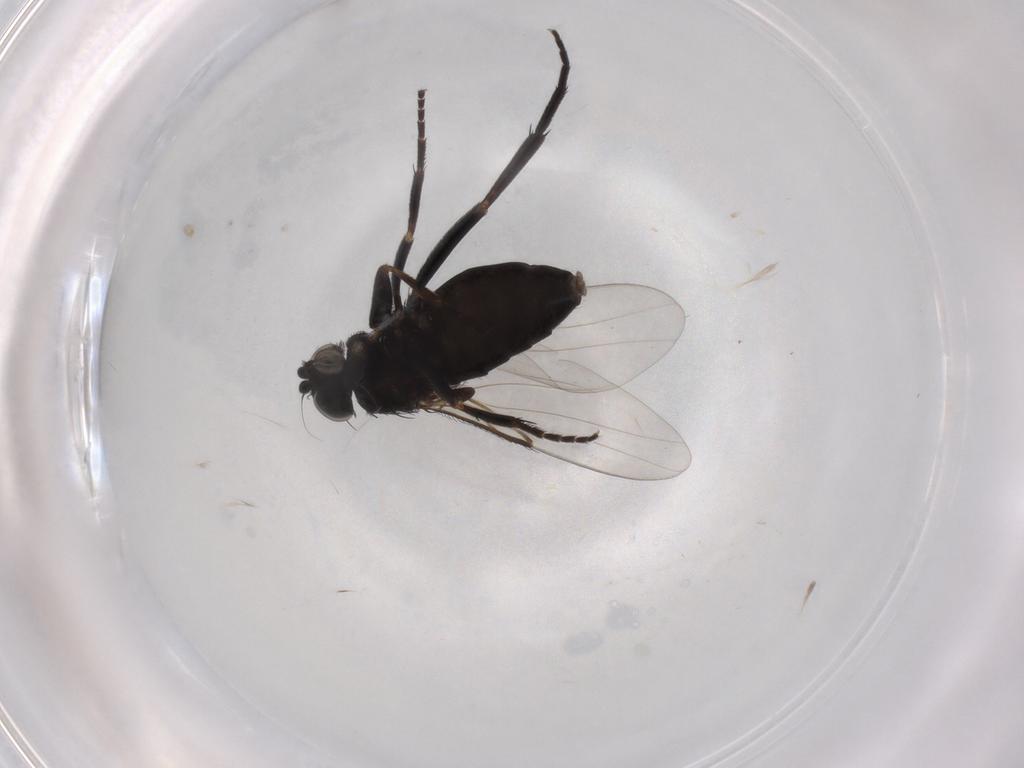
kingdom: Animalia
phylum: Arthropoda
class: Insecta
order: Diptera
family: Phoridae
